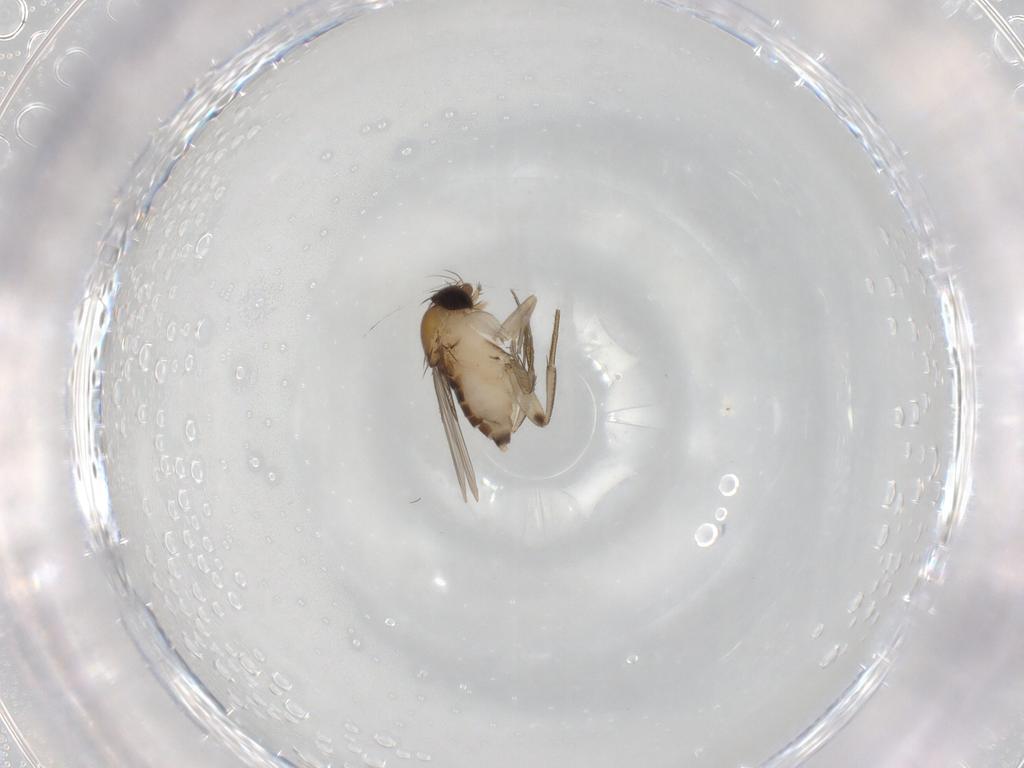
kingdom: Animalia
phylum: Arthropoda
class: Insecta
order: Diptera
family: Phoridae
